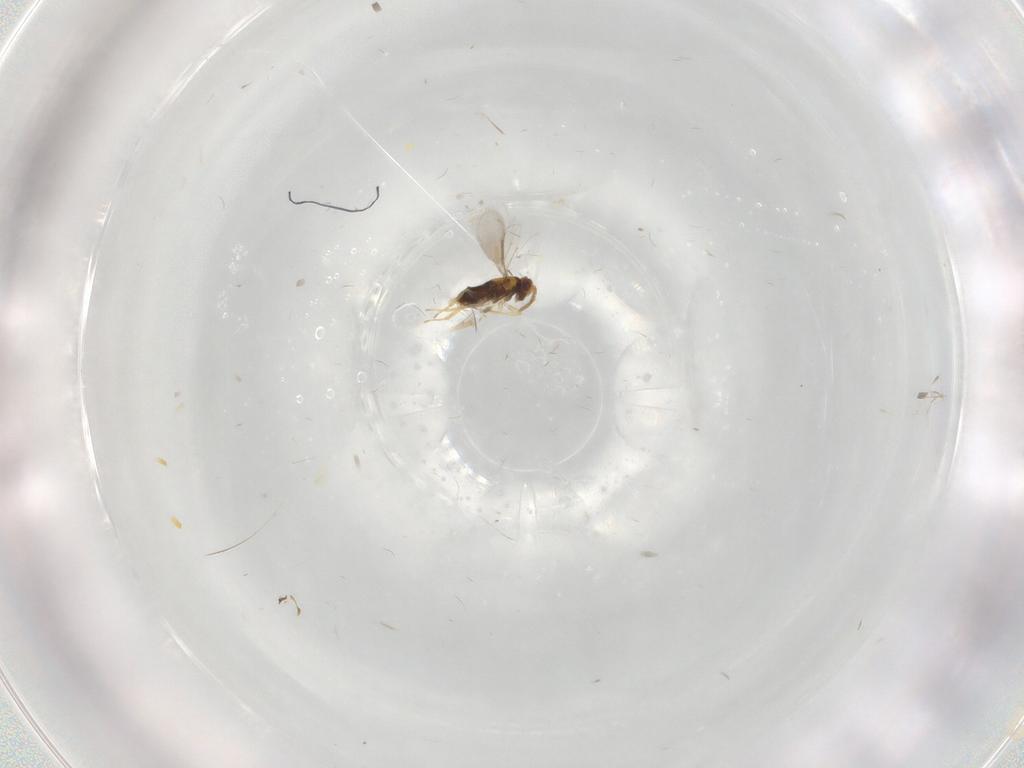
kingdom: Animalia
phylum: Arthropoda
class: Insecta
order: Hymenoptera
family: Aphelinidae
